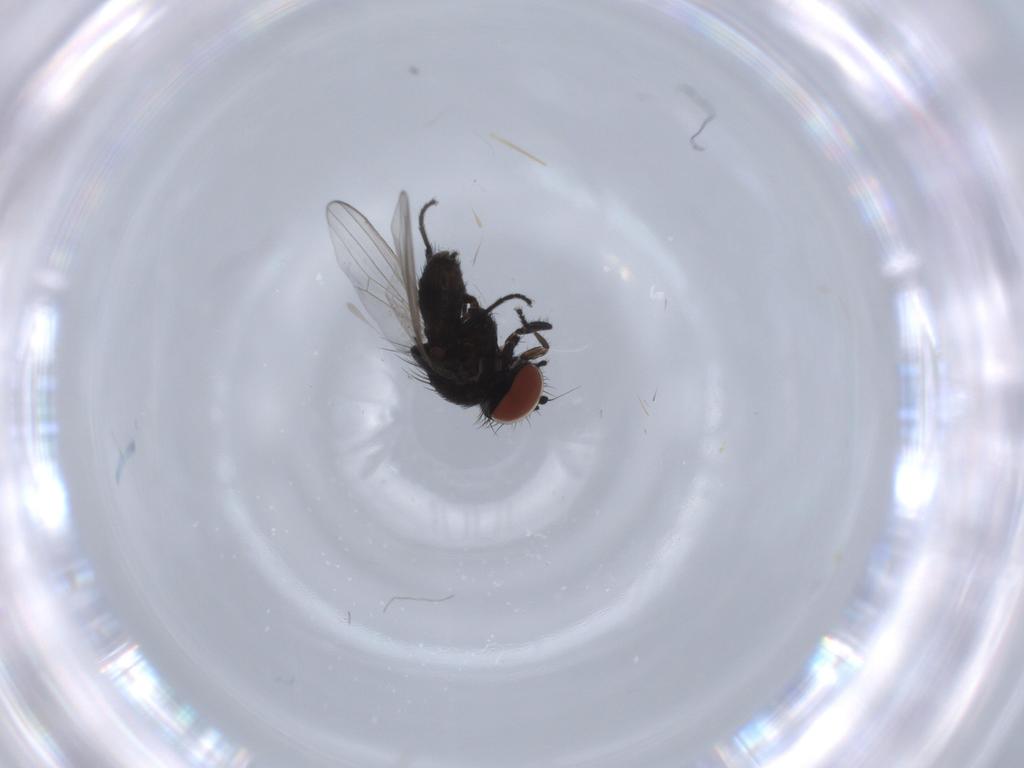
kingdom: Animalia
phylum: Arthropoda
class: Insecta
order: Diptera
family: Milichiidae
